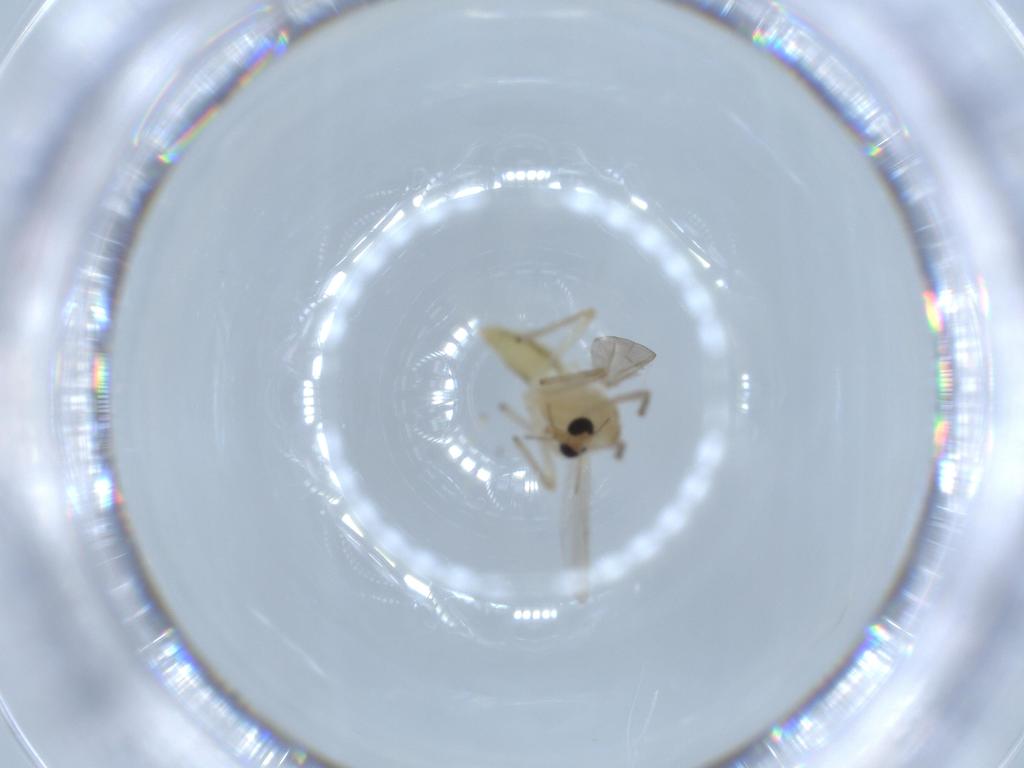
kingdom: Animalia
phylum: Arthropoda
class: Insecta
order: Diptera
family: Chironomidae
